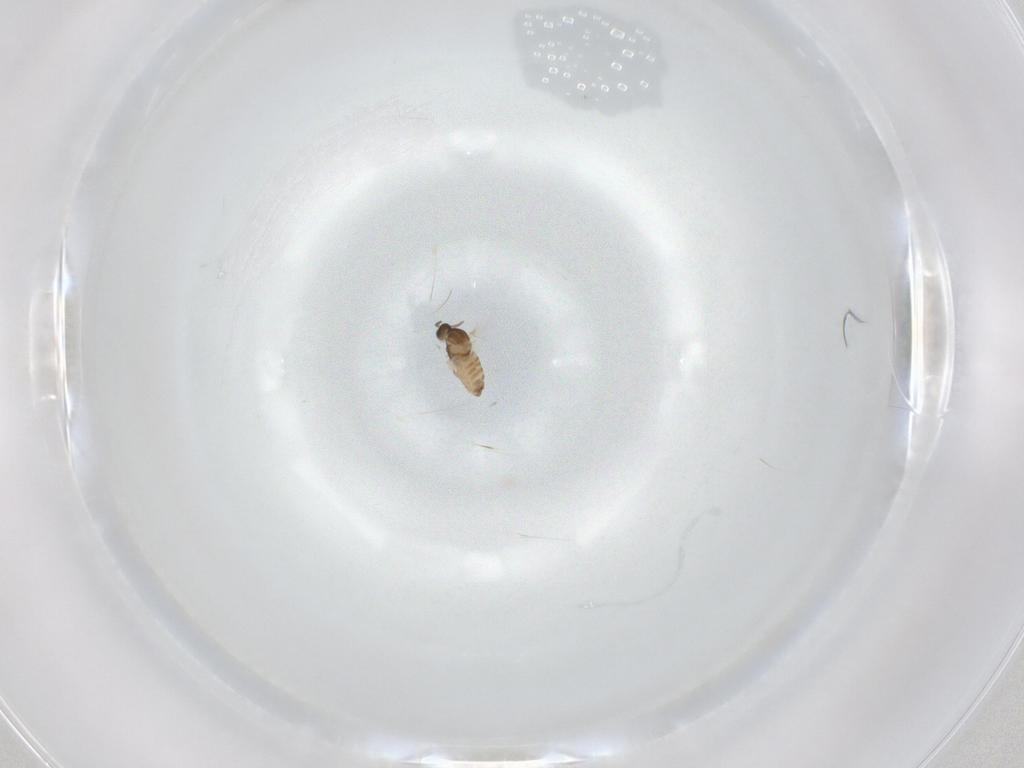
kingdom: Animalia
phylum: Arthropoda
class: Insecta
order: Diptera
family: Cecidomyiidae
